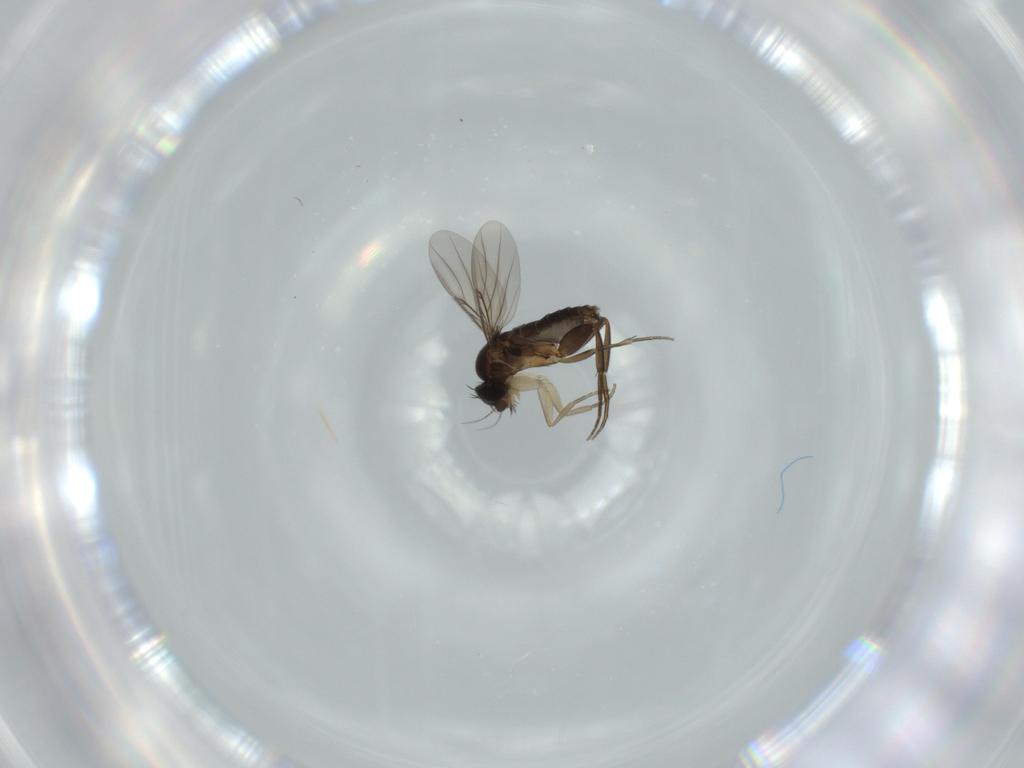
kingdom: Animalia
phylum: Arthropoda
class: Insecta
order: Diptera
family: Phoridae
